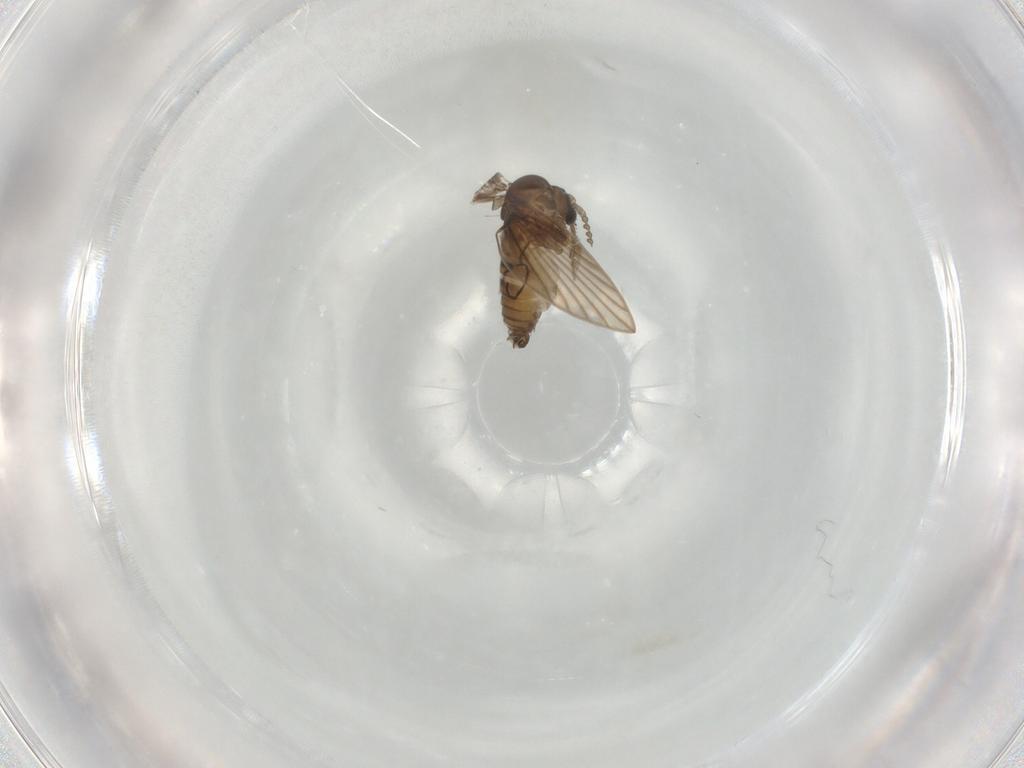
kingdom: Animalia
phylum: Arthropoda
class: Insecta
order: Diptera
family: Psychodidae
